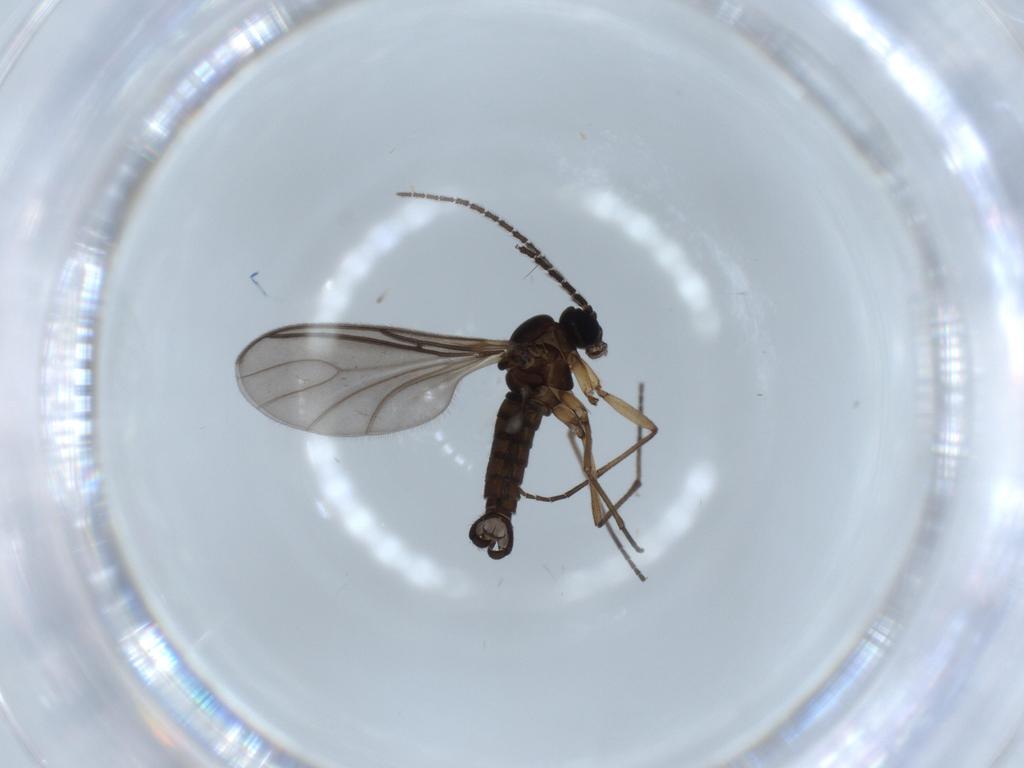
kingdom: Animalia
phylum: Arthropoda
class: Insecta
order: Diptera
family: Sciaridae
